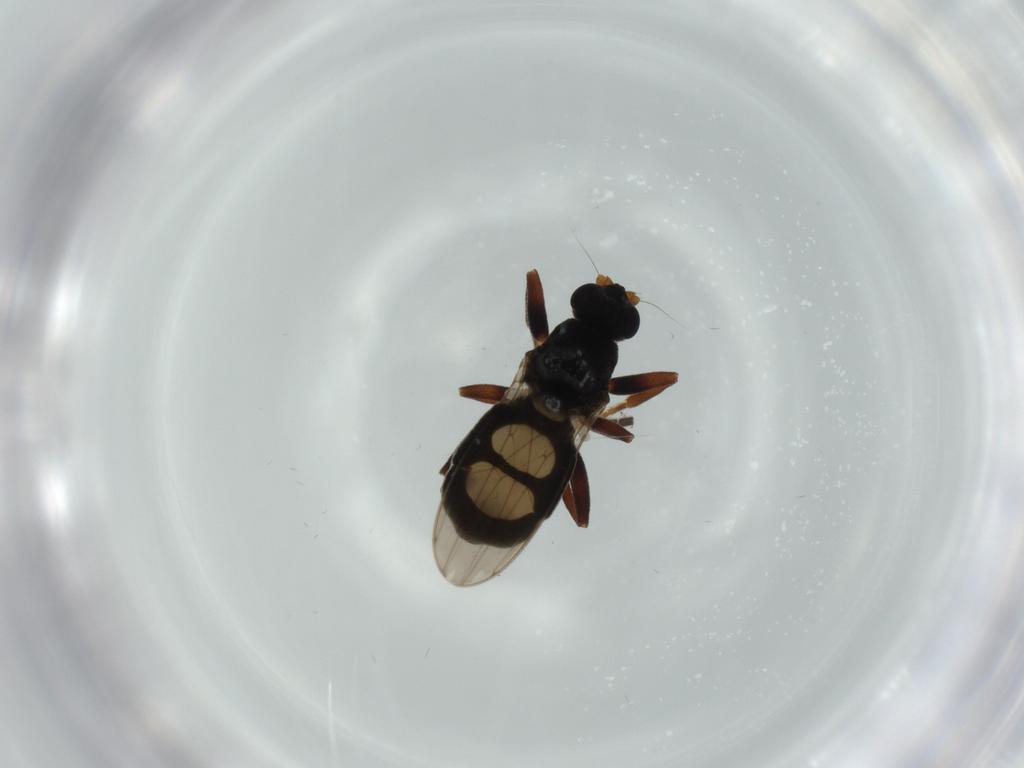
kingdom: Animalia
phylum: Arthropoda
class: Insecta
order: Diptera
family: Sphaeroceridae
